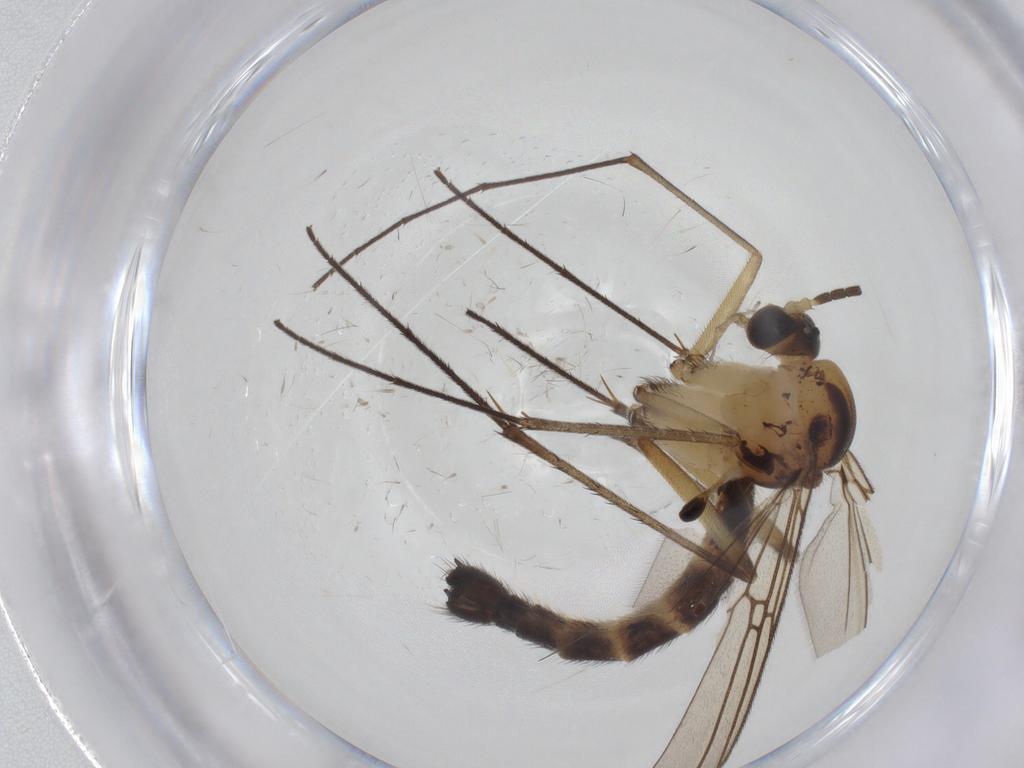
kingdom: Animalia
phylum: Arthropoda
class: Insecta
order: Diptera
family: Mycetophilidae
